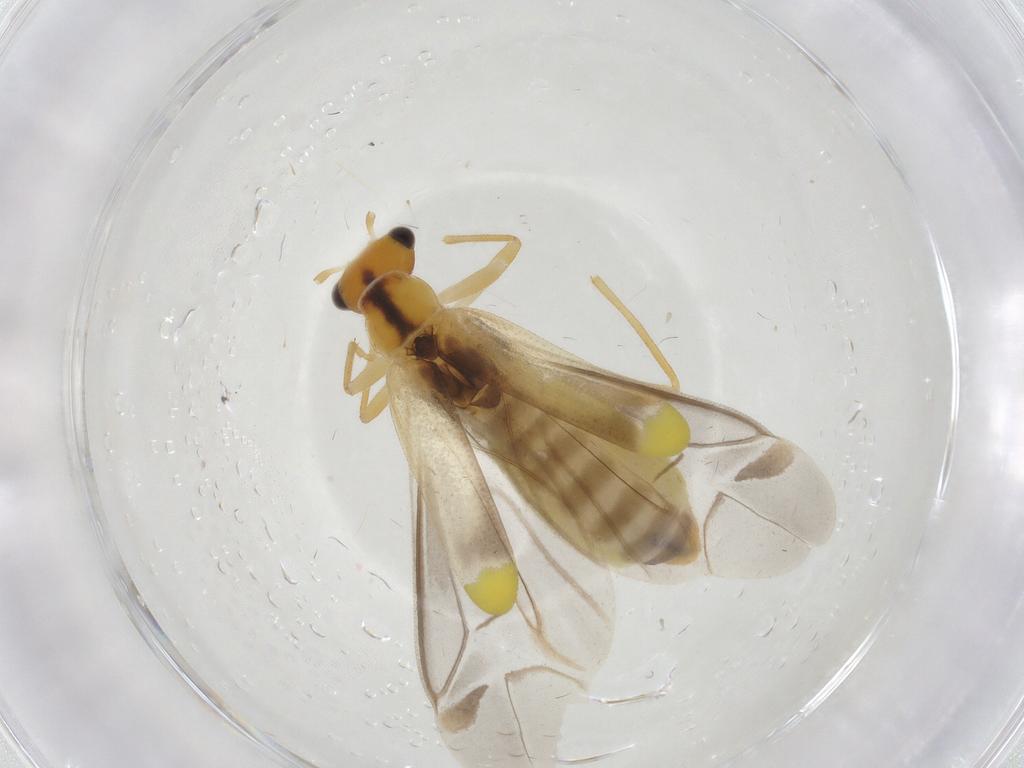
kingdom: Animalia
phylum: Arthropoda
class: Insecta
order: Coleoptera
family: Cantharidae
